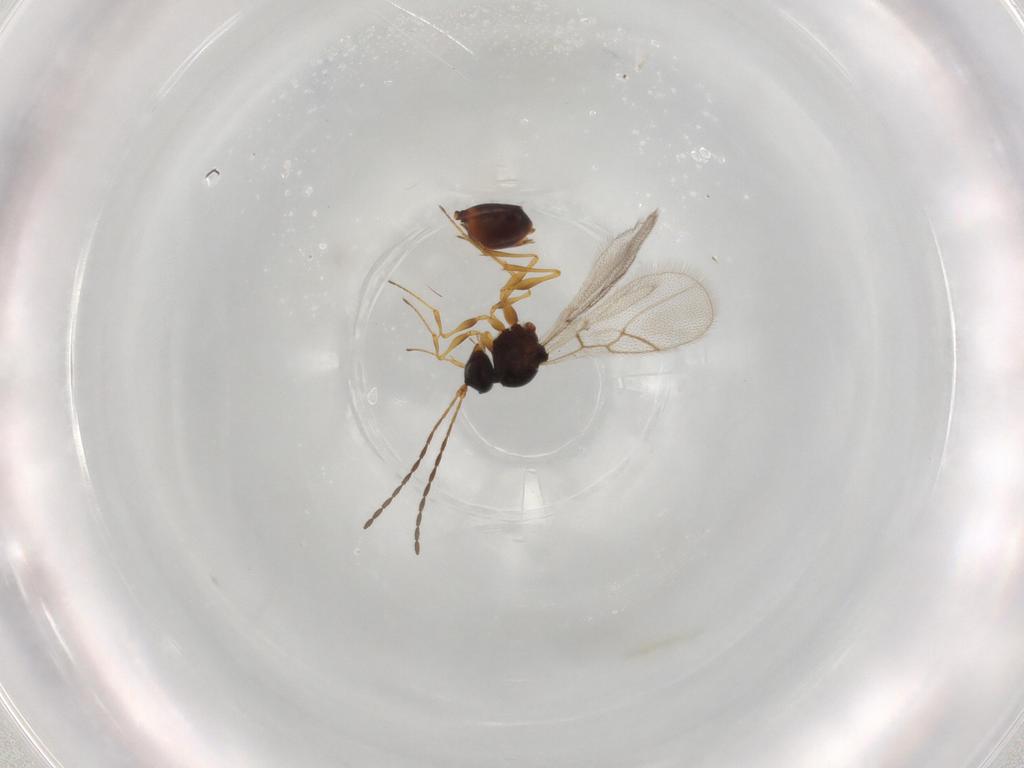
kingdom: Animalia
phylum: Arthropoda
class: Insecta
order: Hymenoptera
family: Figitidae
